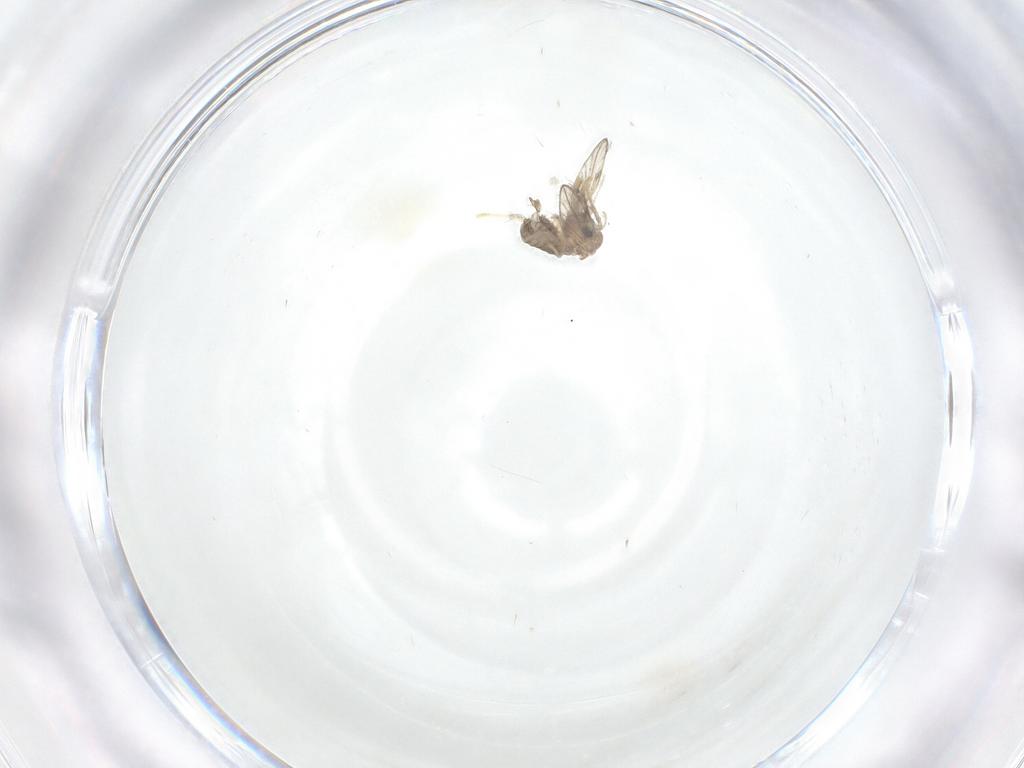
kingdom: Animalia
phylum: Arthropoda
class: Insecta
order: Diptera
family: Psychodidae
